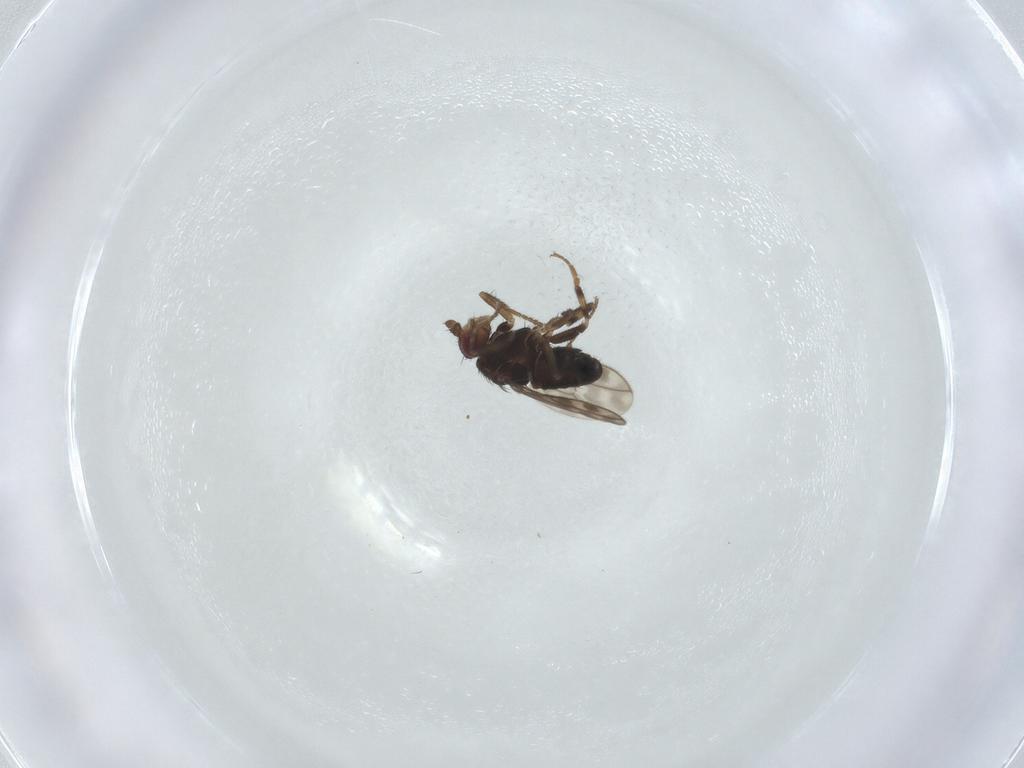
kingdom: Animalia
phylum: Arthropoda
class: Insecta
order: Diptera
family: Sphaeroceridae
